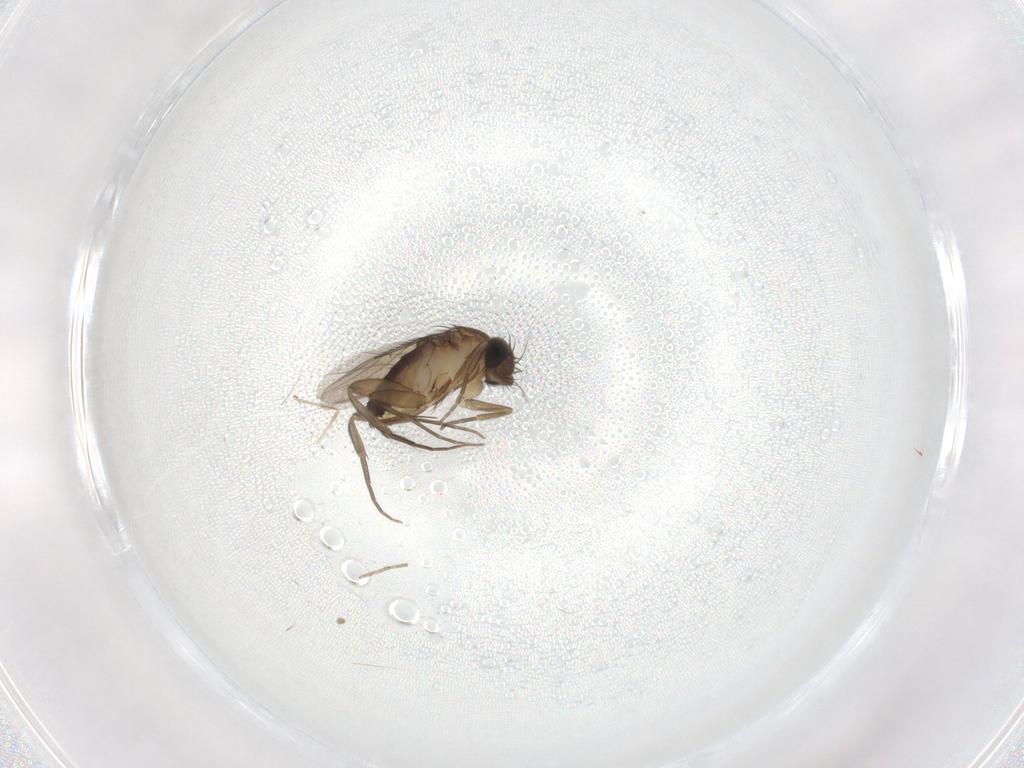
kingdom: Animalia
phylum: Arthropoda
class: Insecta
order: Diptera
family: Phoridae
